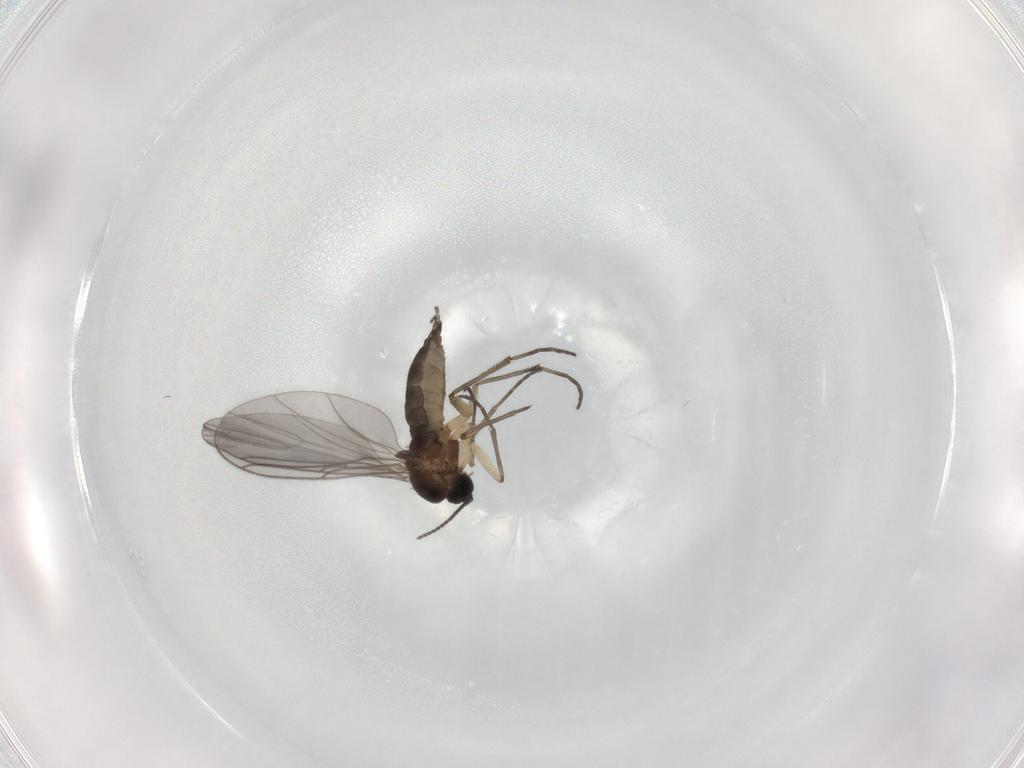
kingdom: Animalia
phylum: Arthropoda
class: Insecta
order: Diptera
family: Sciaridae
